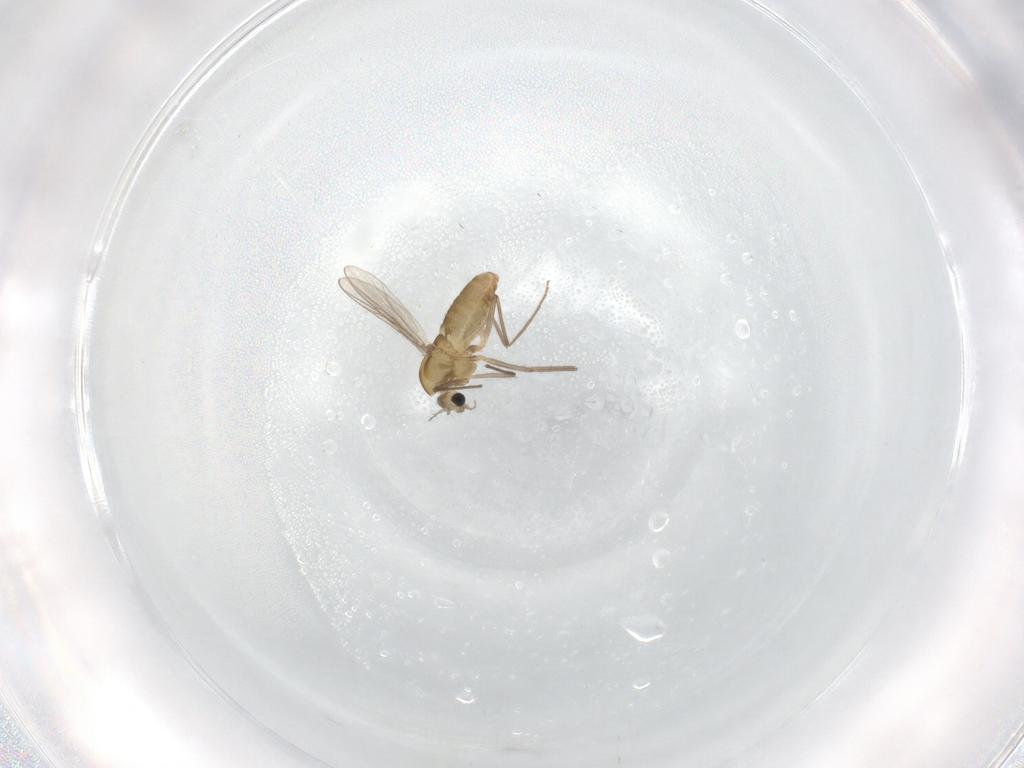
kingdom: Animalia
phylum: Arthropoda
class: Insecta
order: Diptera
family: Chironomidae
